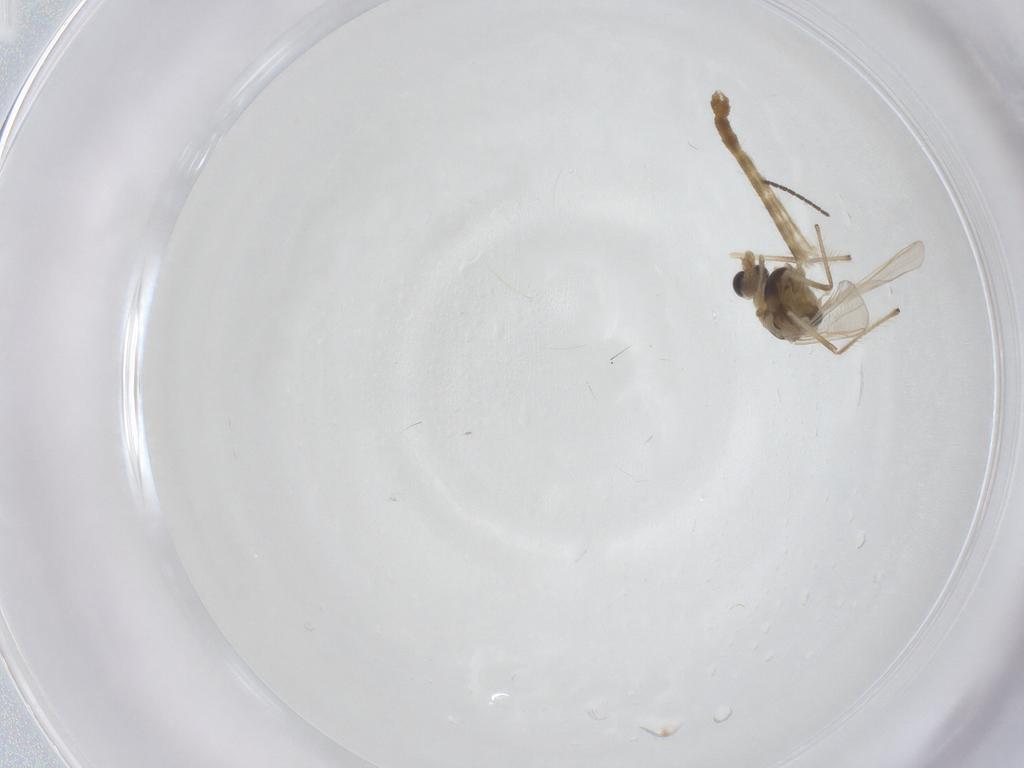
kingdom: Animalia
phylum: Arthropoda
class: Insecta
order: Diptera
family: Chironomidae
